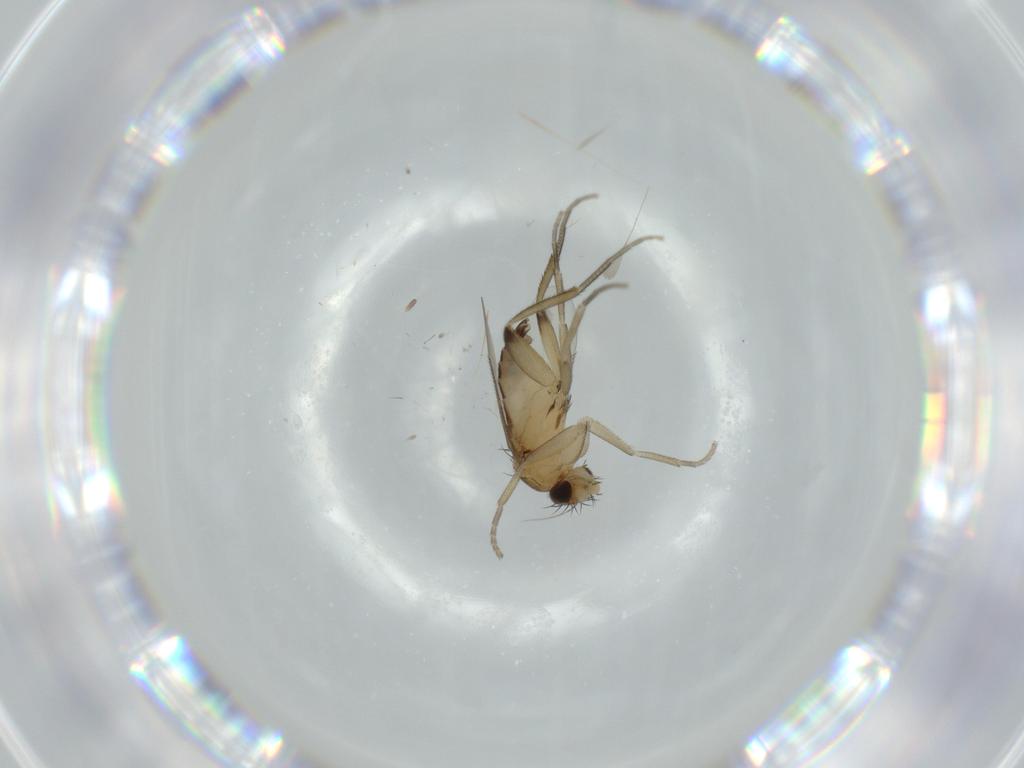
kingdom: Animalia
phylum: Arthropoda
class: Insecta
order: Diptera
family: Phoridae
